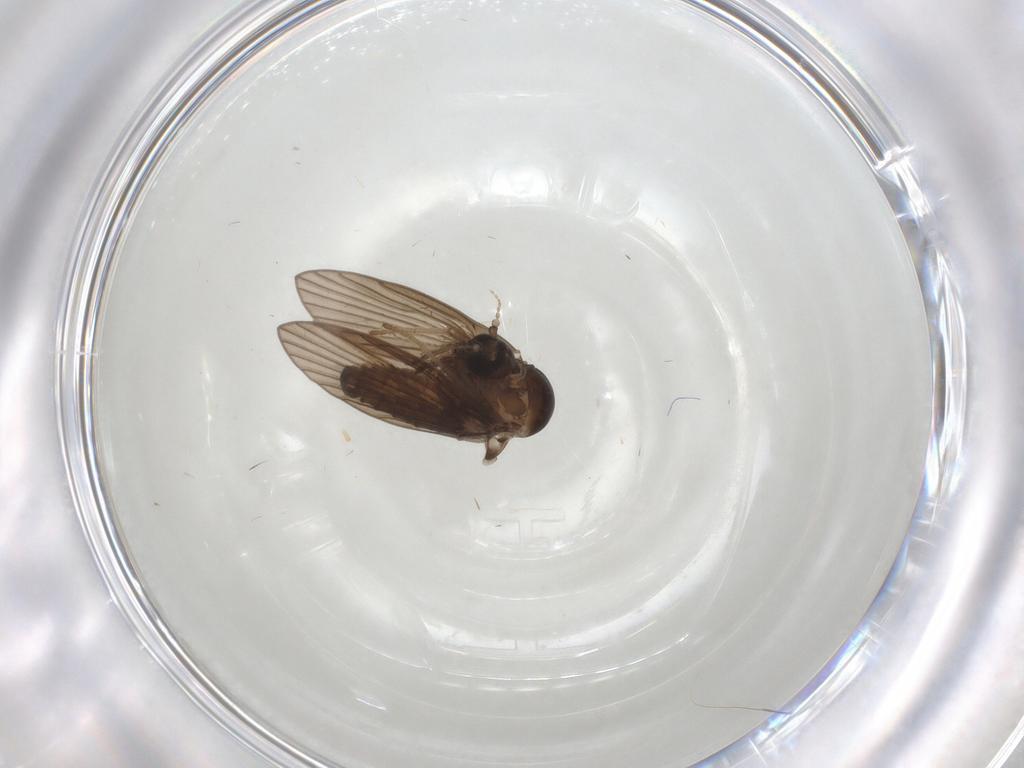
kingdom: Animalia
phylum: Arthropoda
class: Insecta
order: Diptera
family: Psychodidae
